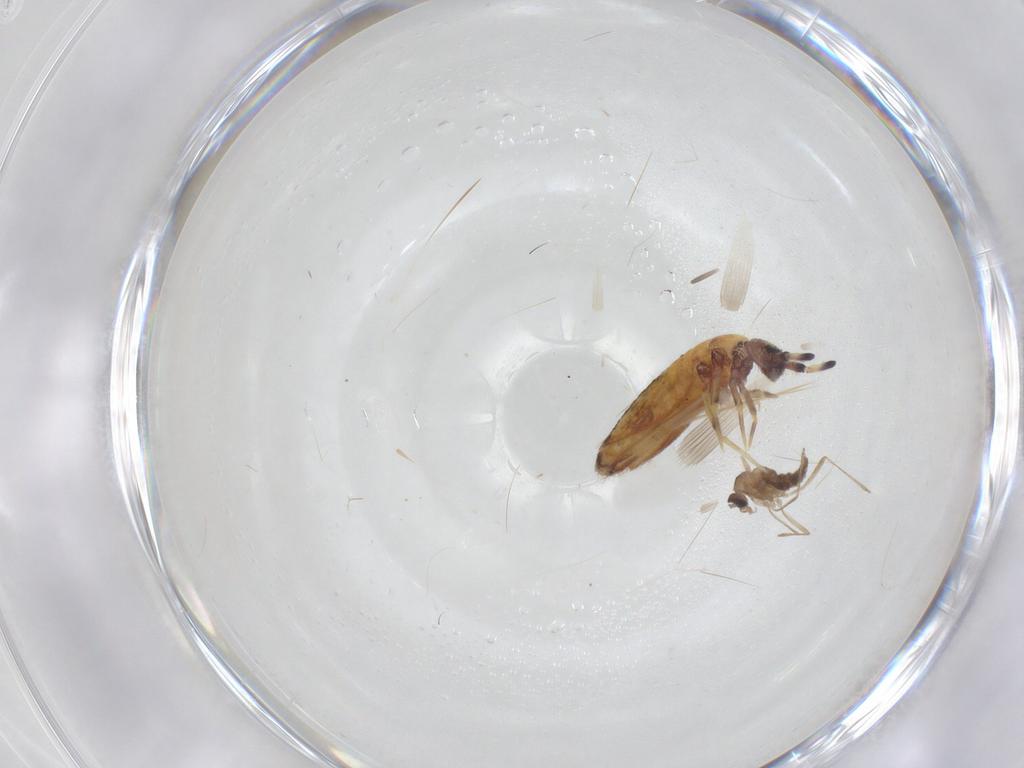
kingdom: Animalia
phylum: Arthropoda
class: Insecta
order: Diptera
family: Cecidomyiidae
